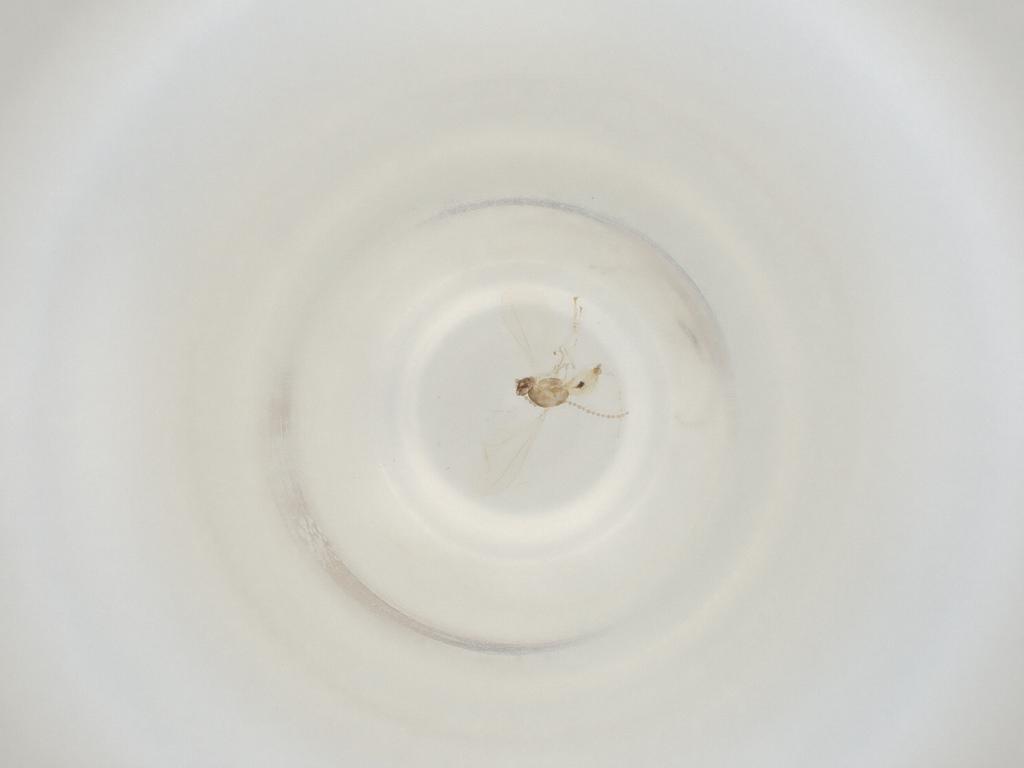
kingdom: Animalia
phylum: Arthropoda
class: Insecta
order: Diptera
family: Cecidomyiidae
